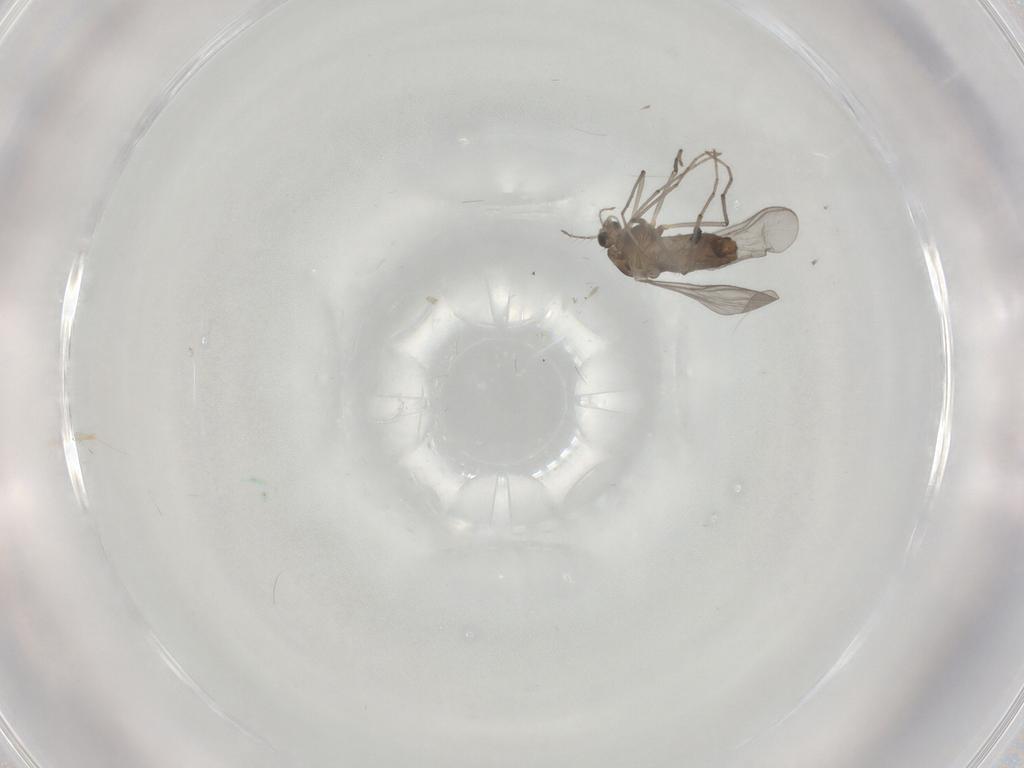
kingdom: Animalia
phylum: Arthropoda
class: Insecta
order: Diptera
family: Chironomidae
